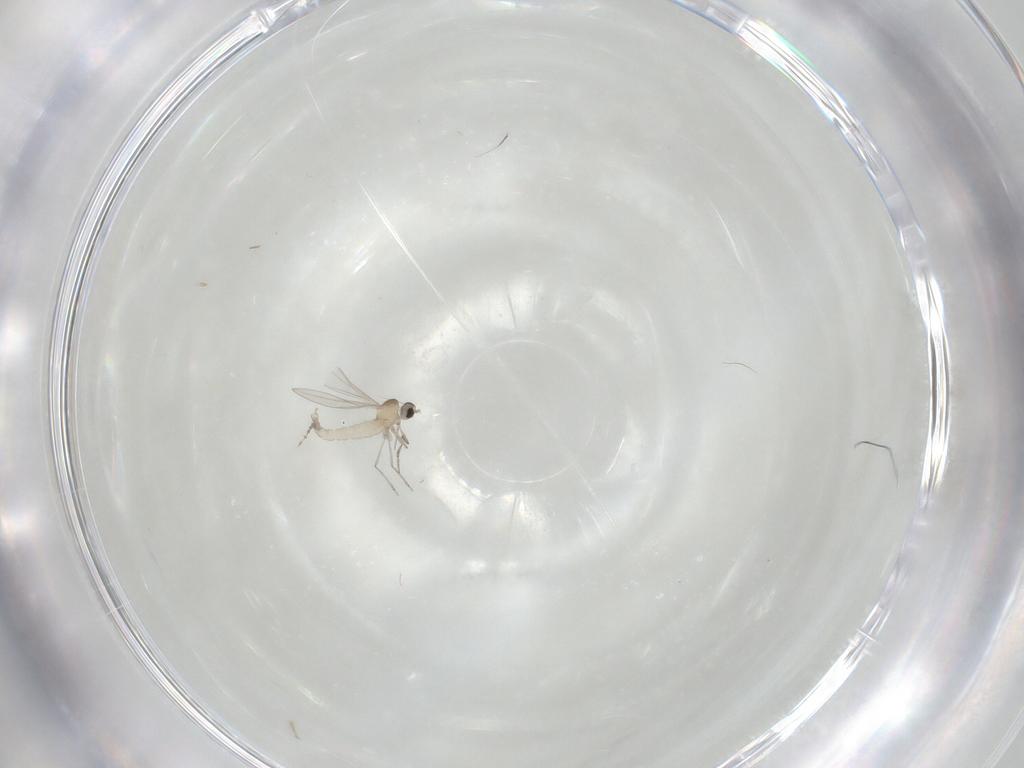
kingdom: Animalia
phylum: Arthropoda
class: Insecta
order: Diptera
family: Cecidomyiidae
